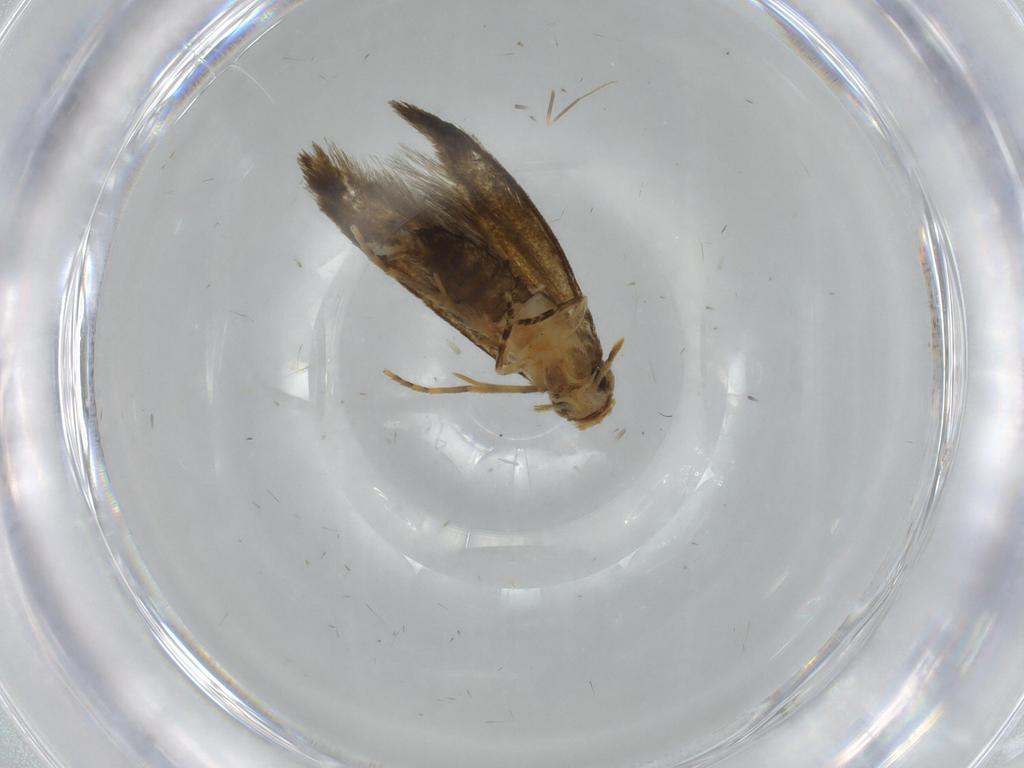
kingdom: Animalia
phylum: Arthropoda
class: Insecta
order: Lepidoptera
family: Tineidae
